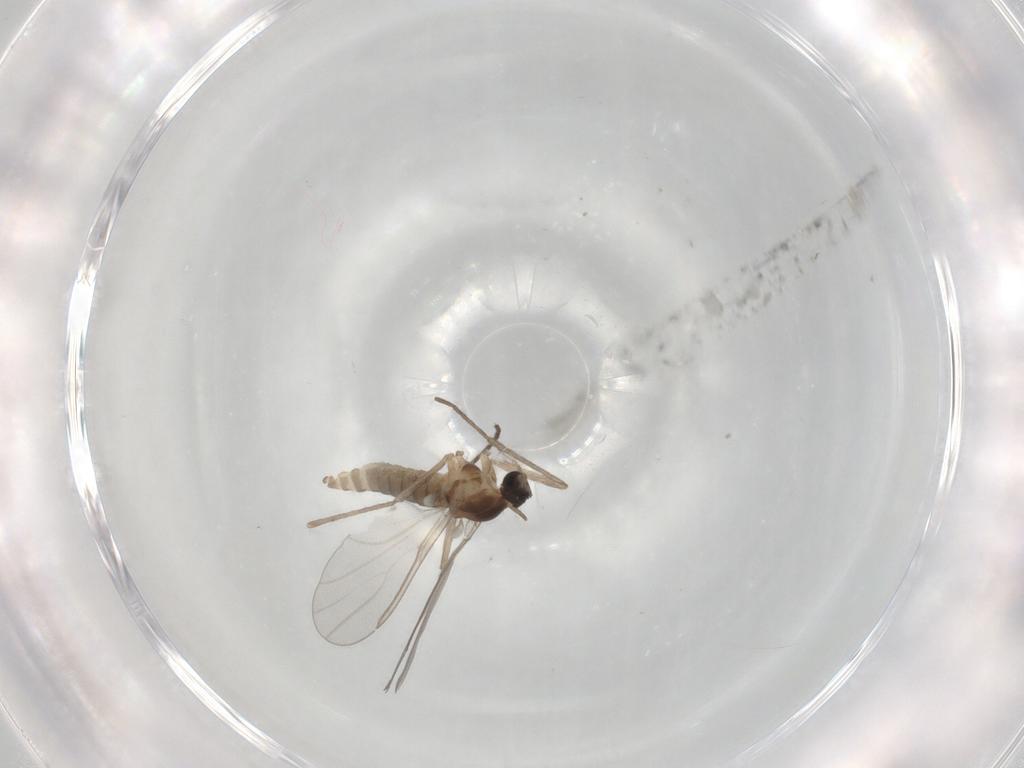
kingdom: Animalia
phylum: Arthropoda
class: Insecta
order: Diptera
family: Cecidomyiidae
